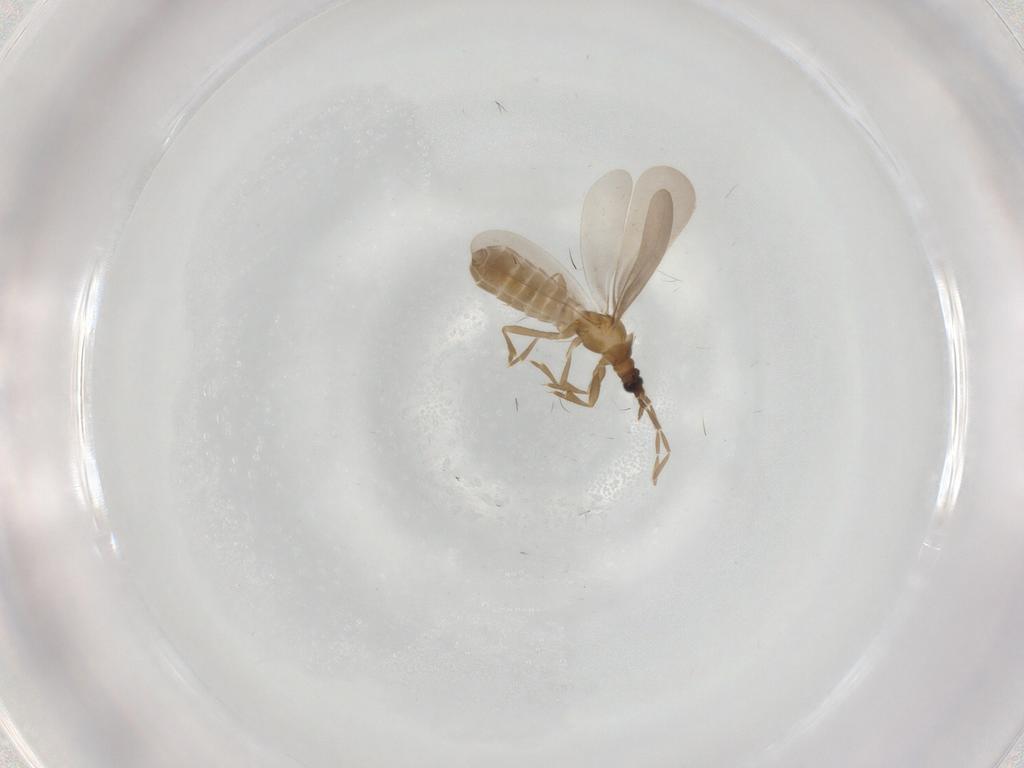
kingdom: Animalia
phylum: Arthropoda
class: Insecta
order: Hemiptera
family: Enicocephalidae
